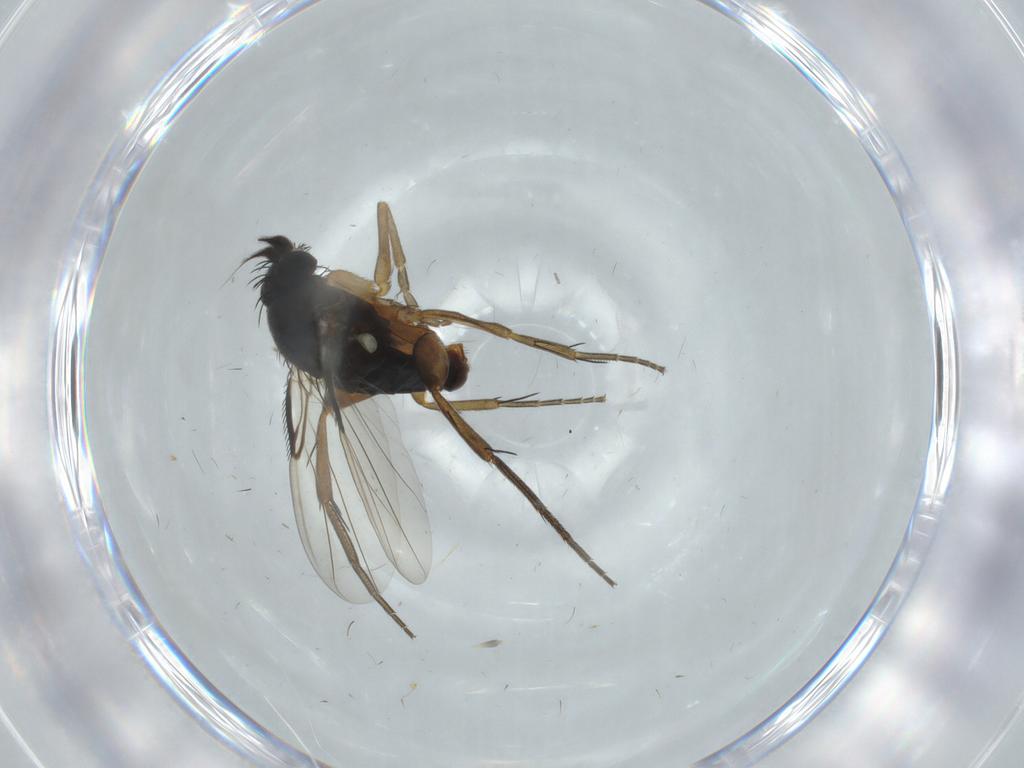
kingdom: Animalia
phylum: Arthropoda
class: Insecta
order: Diptera
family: Phoridae
